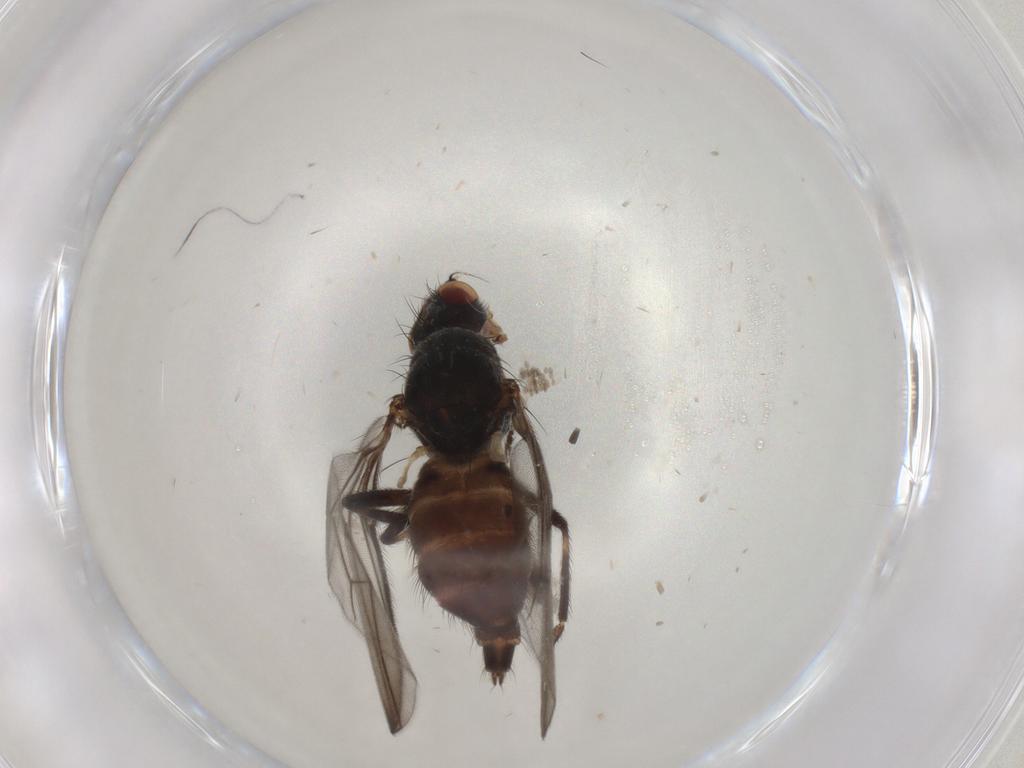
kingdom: Animalia
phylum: Arthropoda
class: Insecta
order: Diptera
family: Chloropidae
